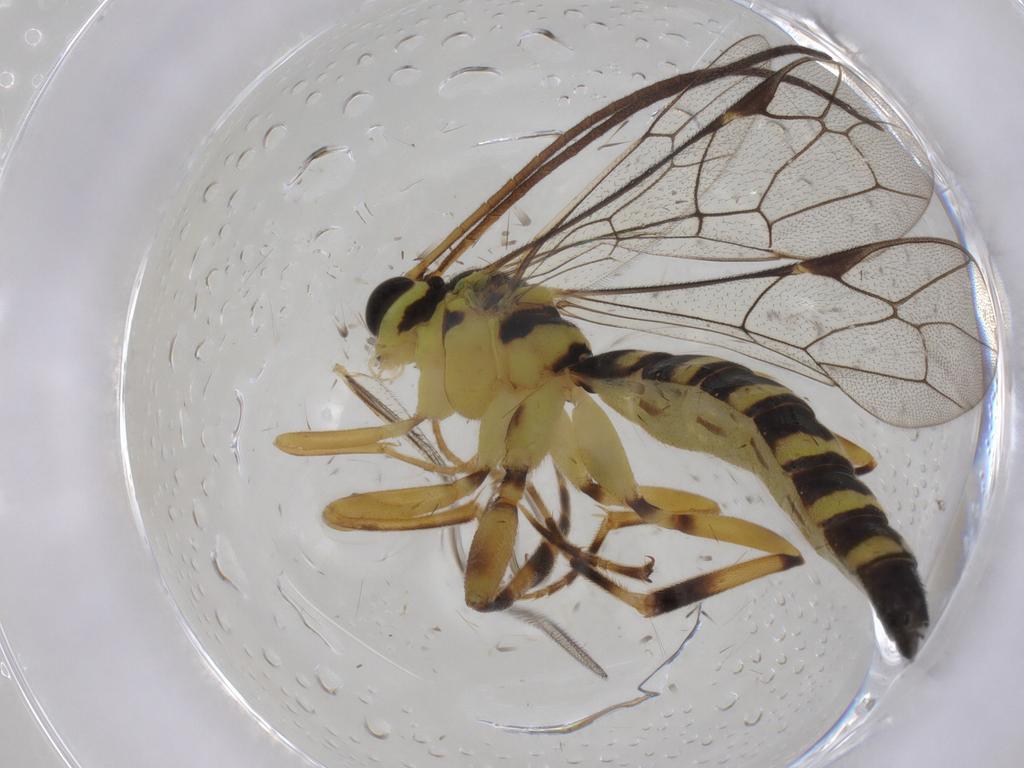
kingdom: Animalia
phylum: Arthropoda
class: Insecta
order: Hymenoptera
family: Ichneumonidae
